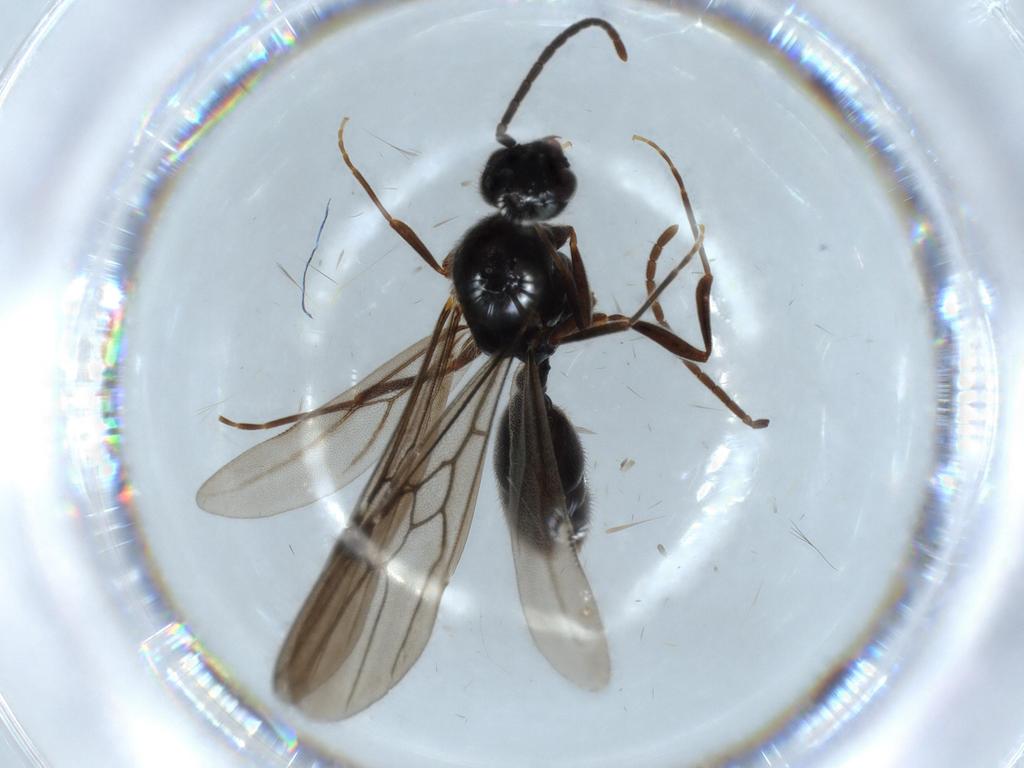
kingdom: Animalia
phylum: Arthropoda
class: Insecta
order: Hymenoptera
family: Formicidae
